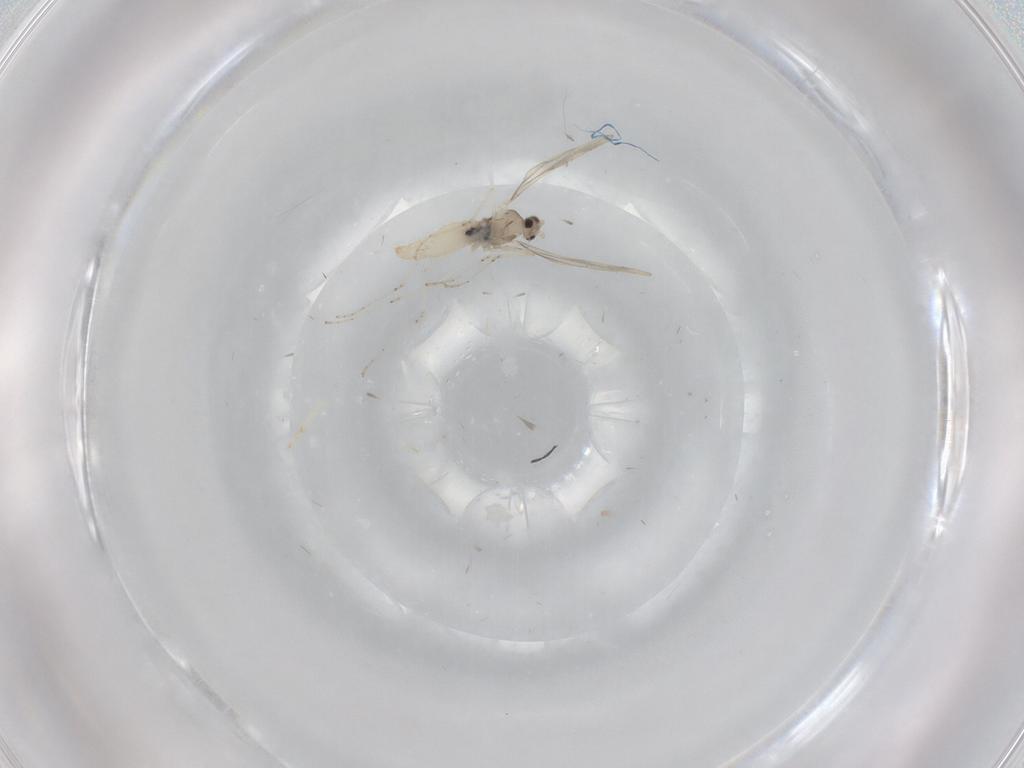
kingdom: Animalia
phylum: Arthropoda
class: Insecta
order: Diptera
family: Cecidomyiidae
